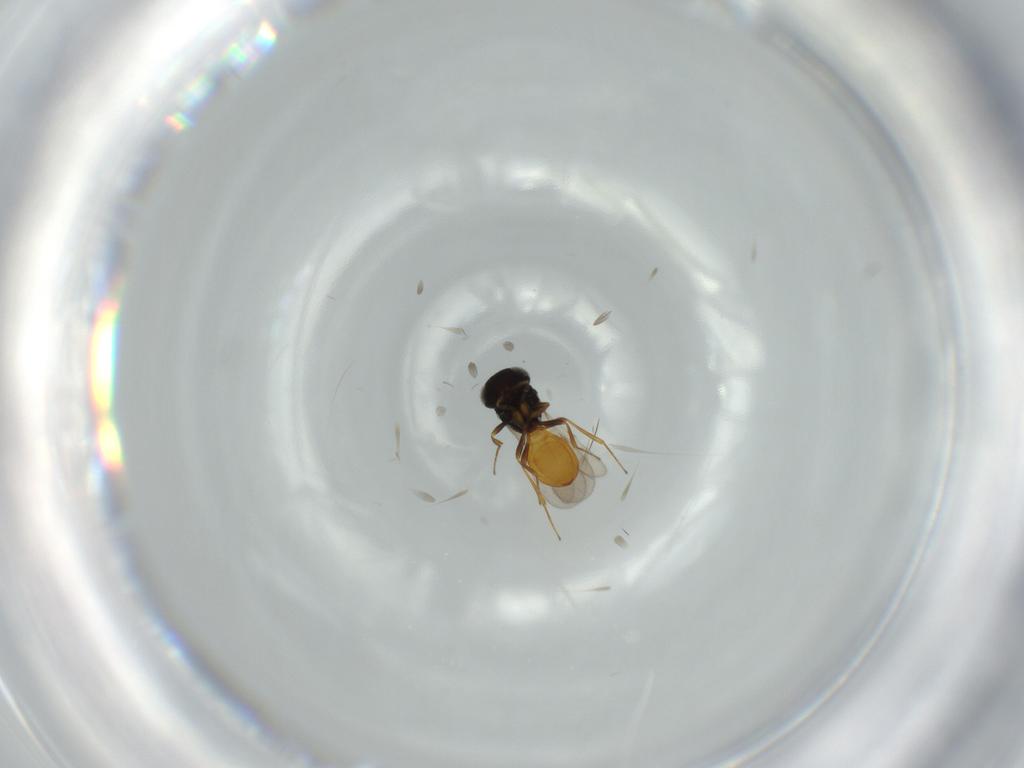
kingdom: Animalia
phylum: Arthropoda
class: Insecta
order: Hymenoptera
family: Scelionidae
